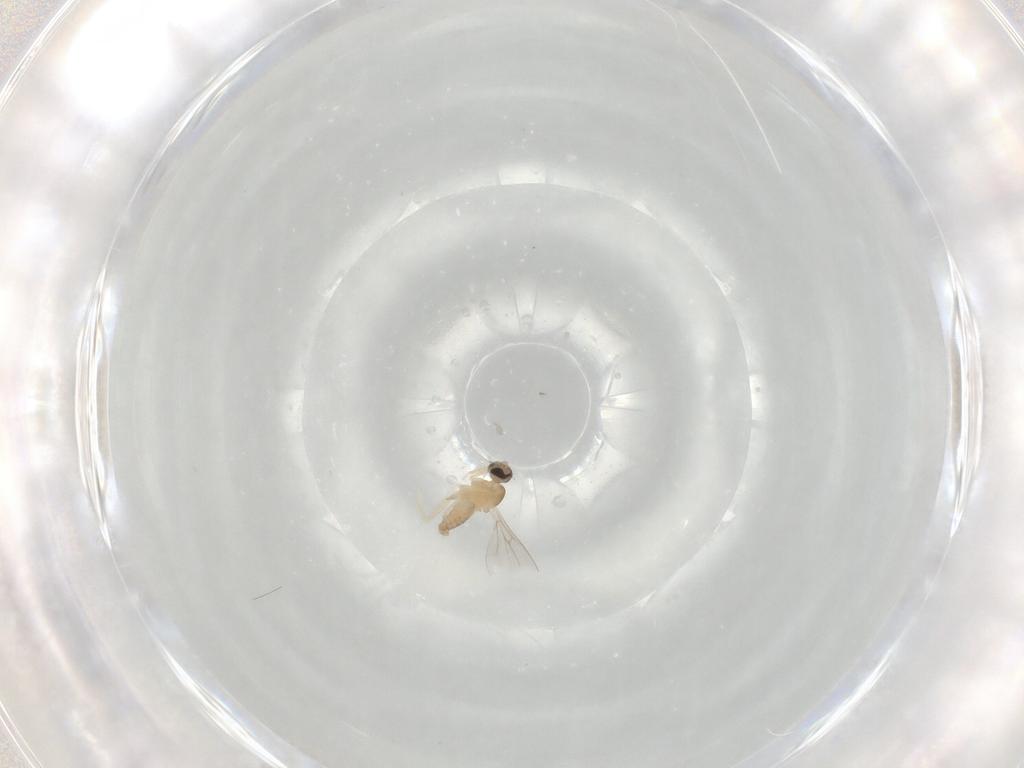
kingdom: Animalia
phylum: Arthropoda
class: Insecta
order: Diptera
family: Cecidomyiidae
